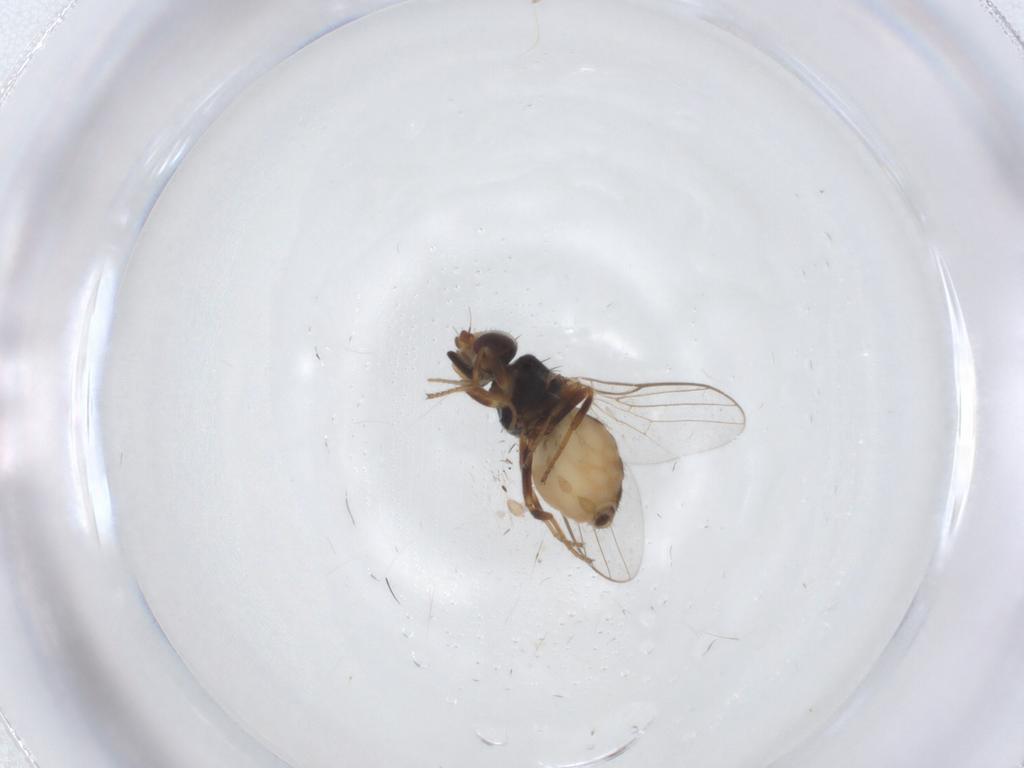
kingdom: Animalia
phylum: Arthropoda
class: Insecta
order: Diptera
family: Chloropidae
